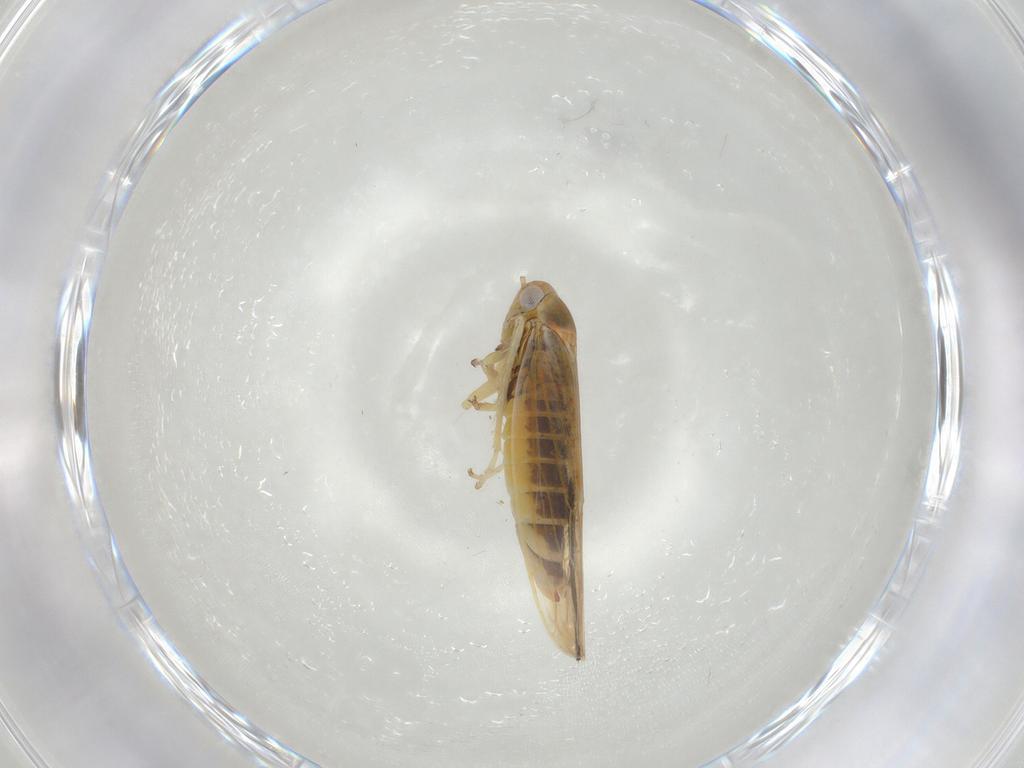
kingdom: Animalia
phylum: Arthropoda
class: Insecta
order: Hemiptera
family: Cicadellidae
